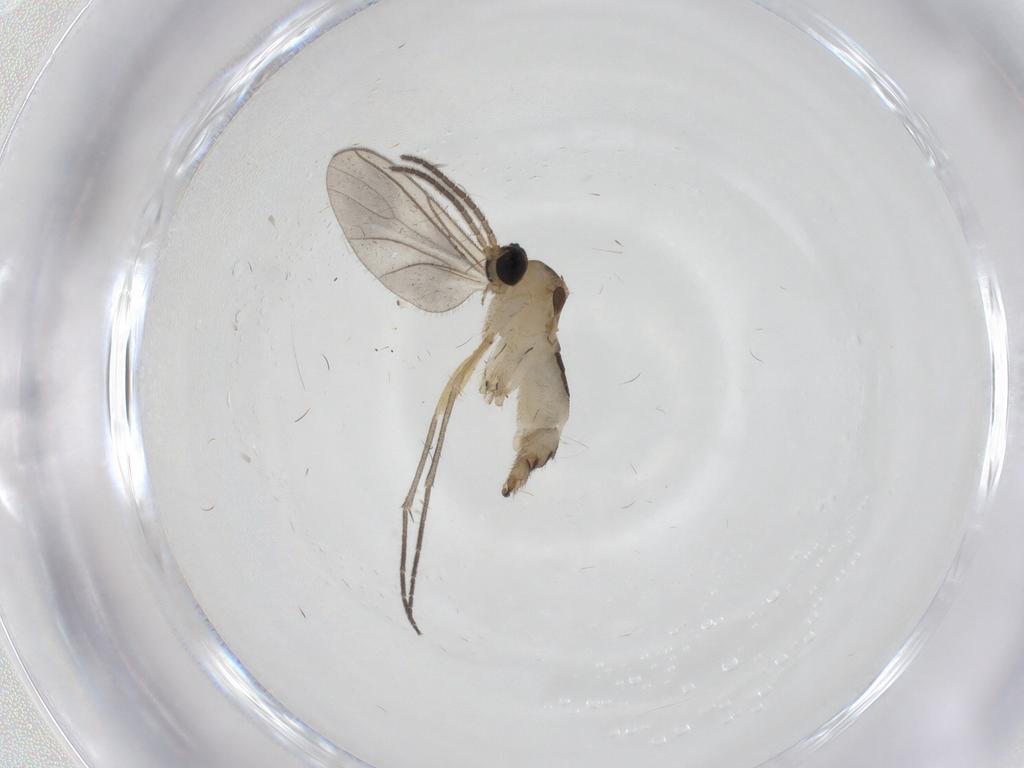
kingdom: Animalia
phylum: Arthropoda
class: Insecta
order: Diptera
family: Sciaridae
